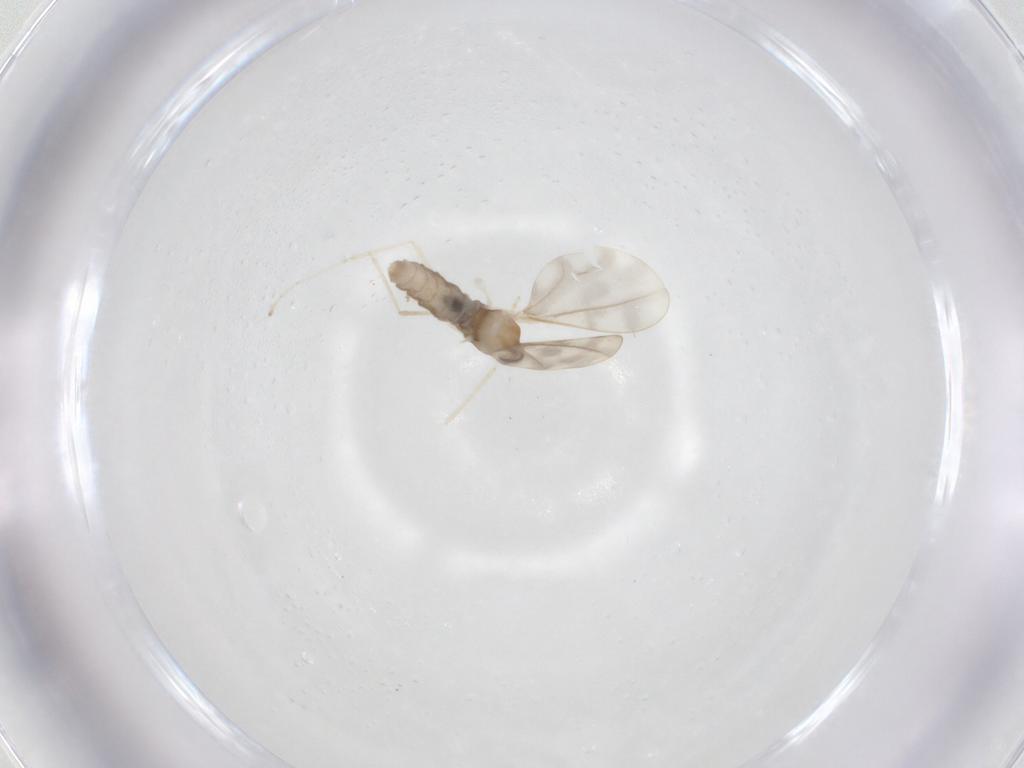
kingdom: Animalia
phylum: Arthropoda
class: Insecta
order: Diptera
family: Cecidomyiidae
